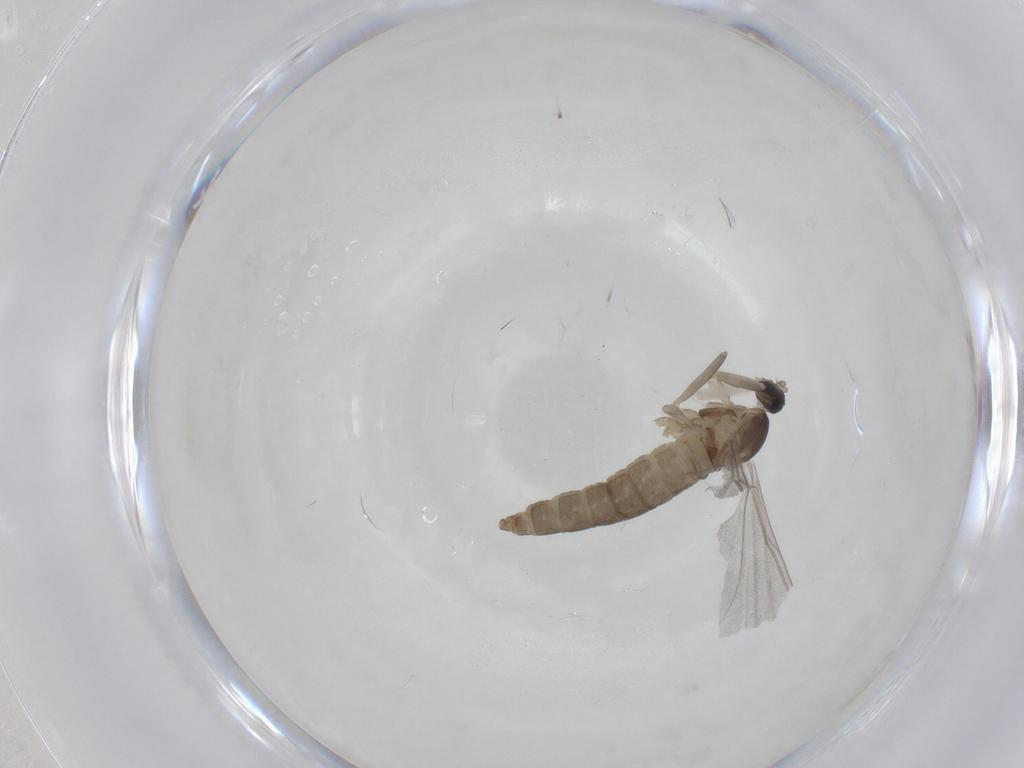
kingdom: Animalia
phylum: Arthropoda
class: Insecta
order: Diptera
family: Cecidomyiidae
